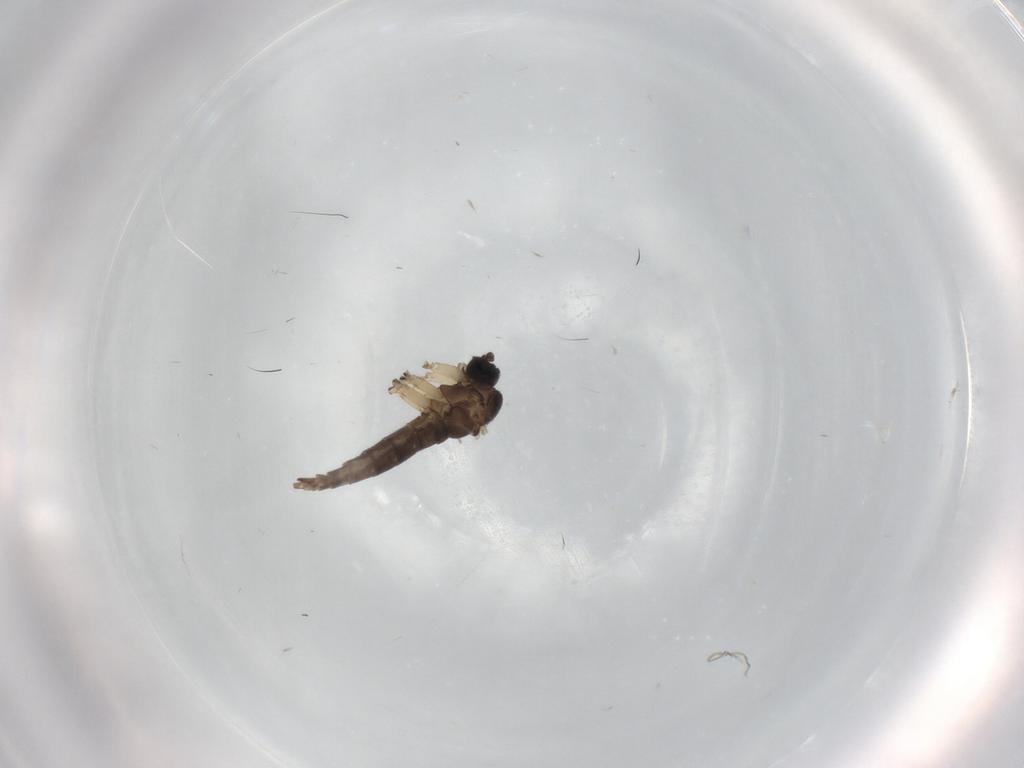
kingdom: Animalia
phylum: Arthropoda
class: Insecta
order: Diptera
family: Sciaridae
